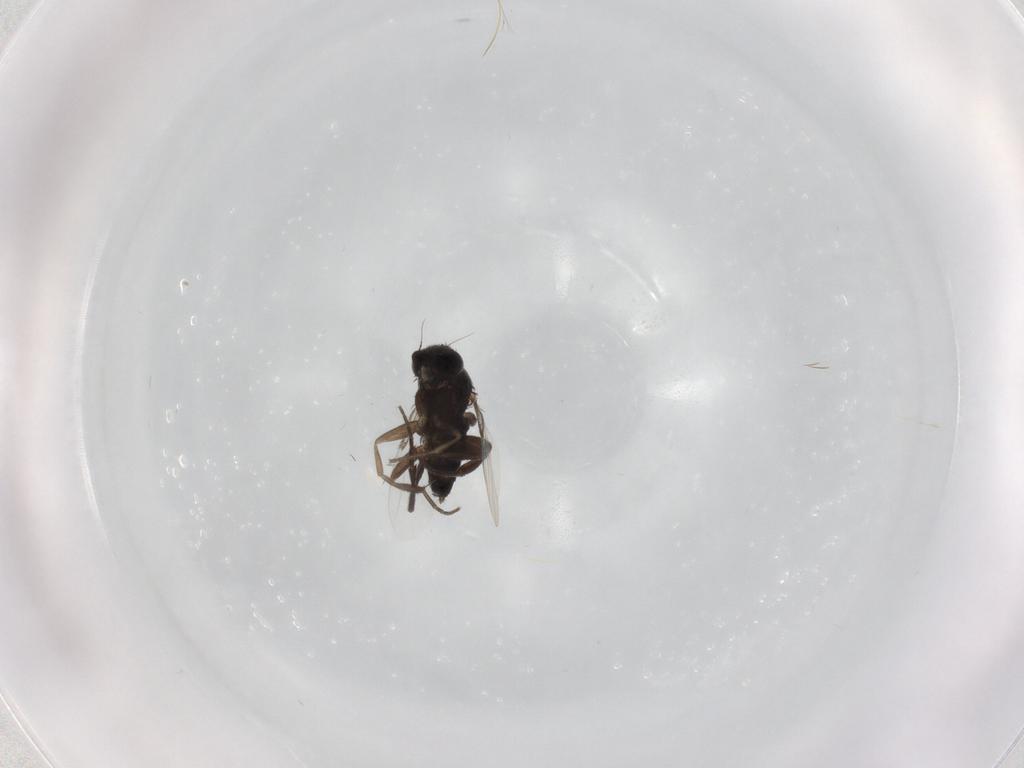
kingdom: Animalia
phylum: Arthropoda
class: Insecta
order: Diptera
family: Phoridae
